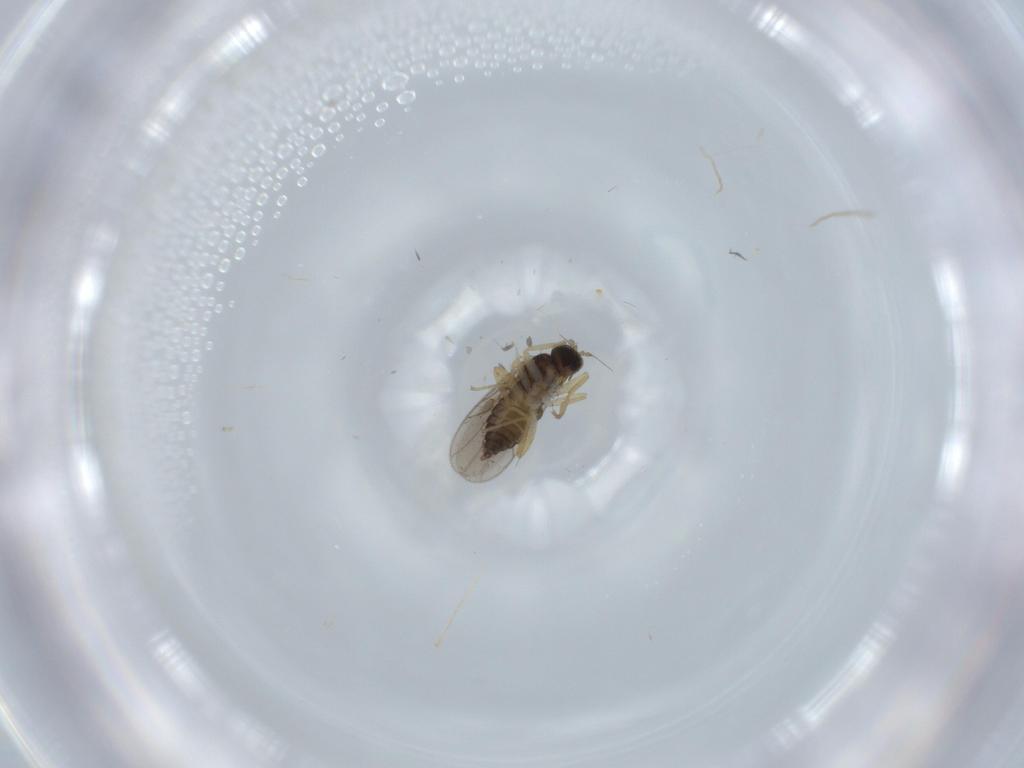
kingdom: Animalia
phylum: Arthropoda
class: Insecta
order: Diptera
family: Hybotidae
